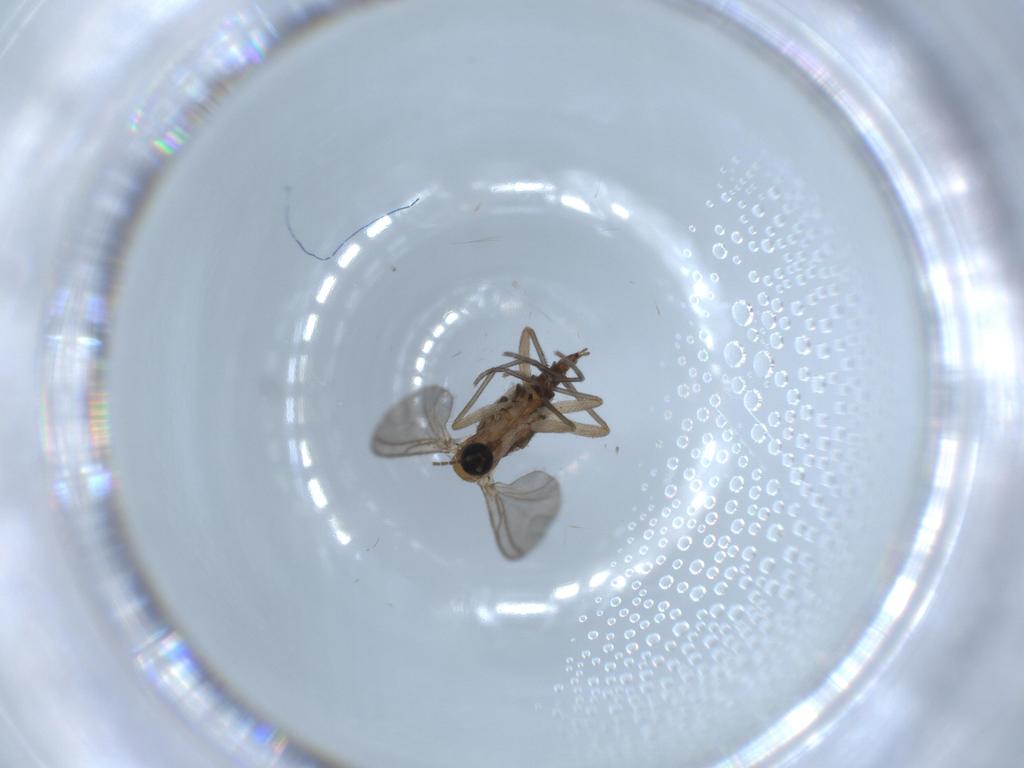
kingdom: Animalia
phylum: Arthropoda
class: Insecta
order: Diptera
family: Sciaridae
